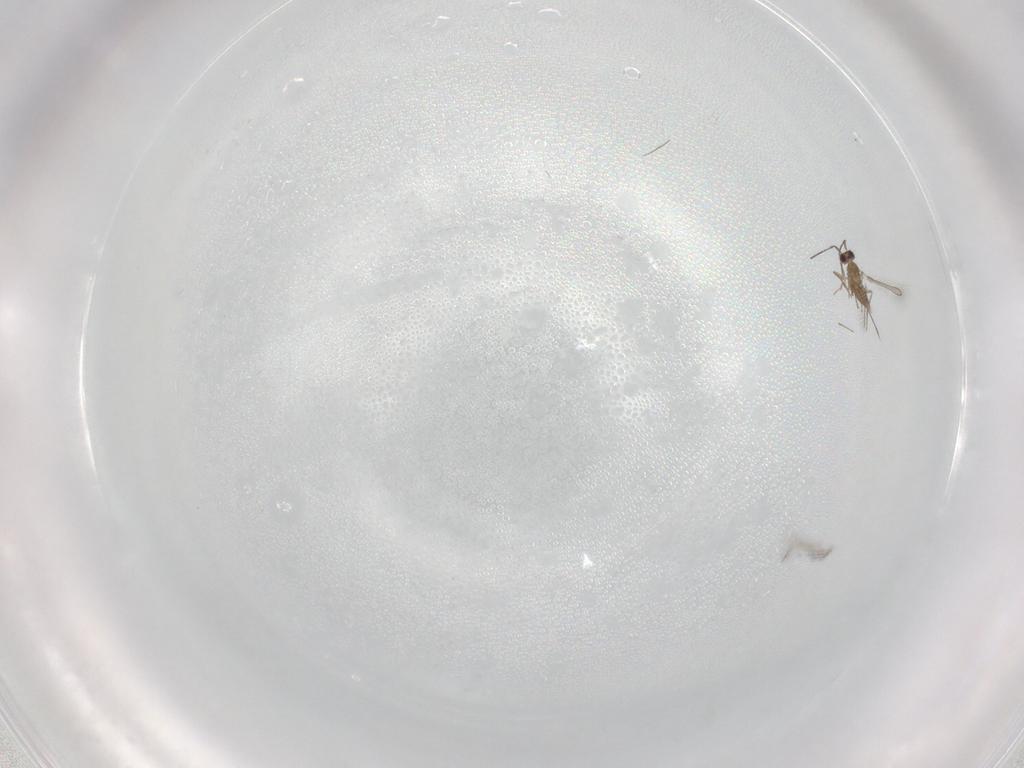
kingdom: Animalia
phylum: Arthropoda
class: Insecta
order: Hymenoptera
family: Mymaridae
